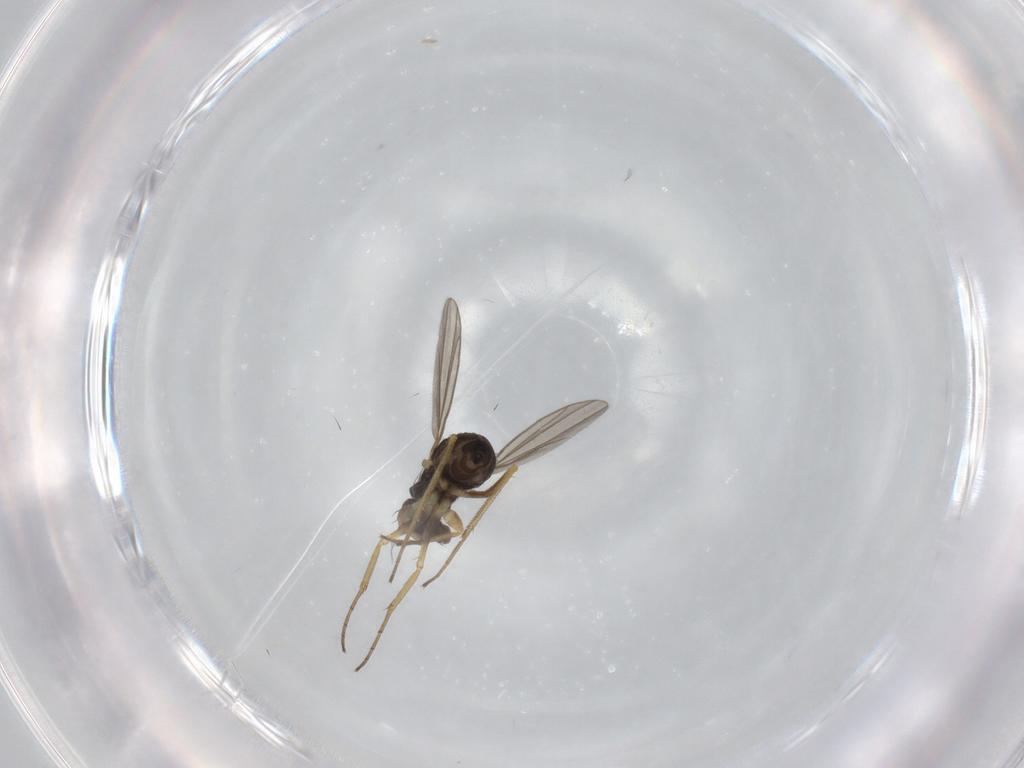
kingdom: Animalia
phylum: Arthropoda
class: Insecta
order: Diptera
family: Dolichopodidae
